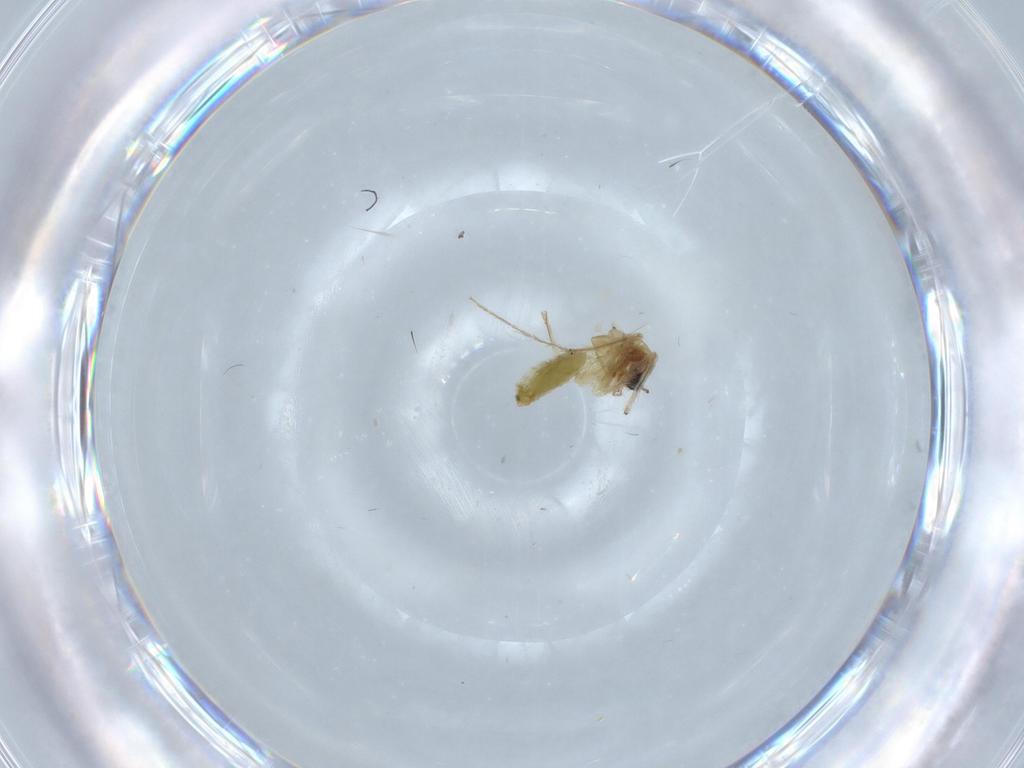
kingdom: Animalia
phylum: Arthropoda
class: Insecta
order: Diptera
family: Chironomidae
